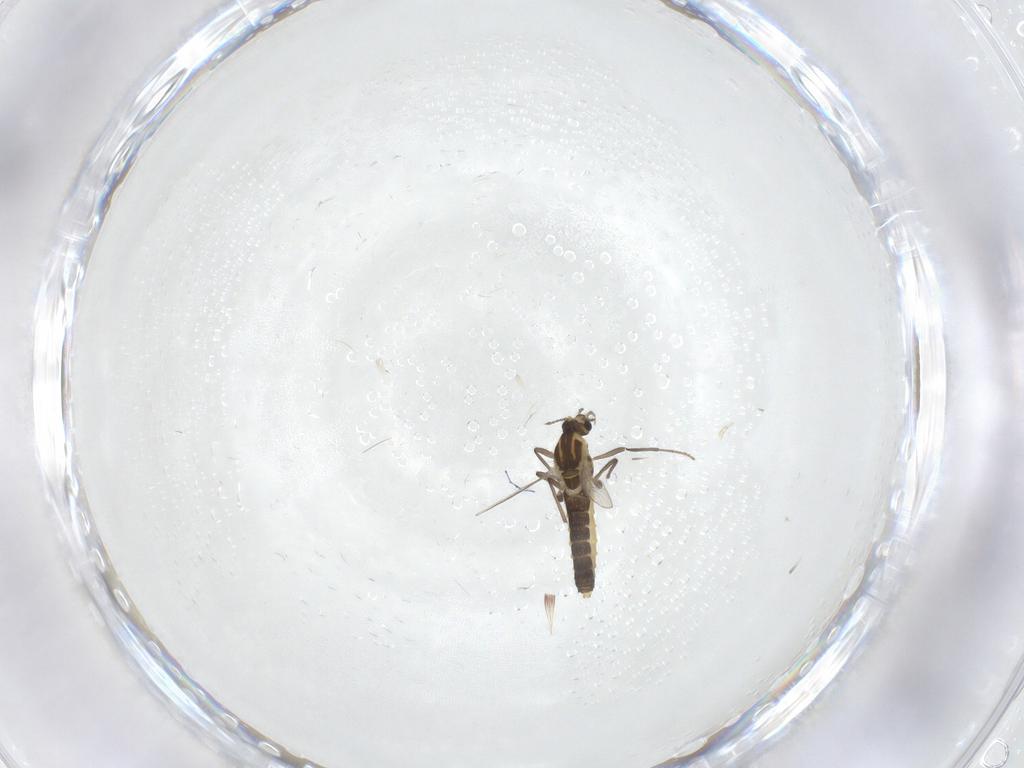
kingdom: Animalia
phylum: Arthropoda
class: Insecta
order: Diptera
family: Chironomidae
